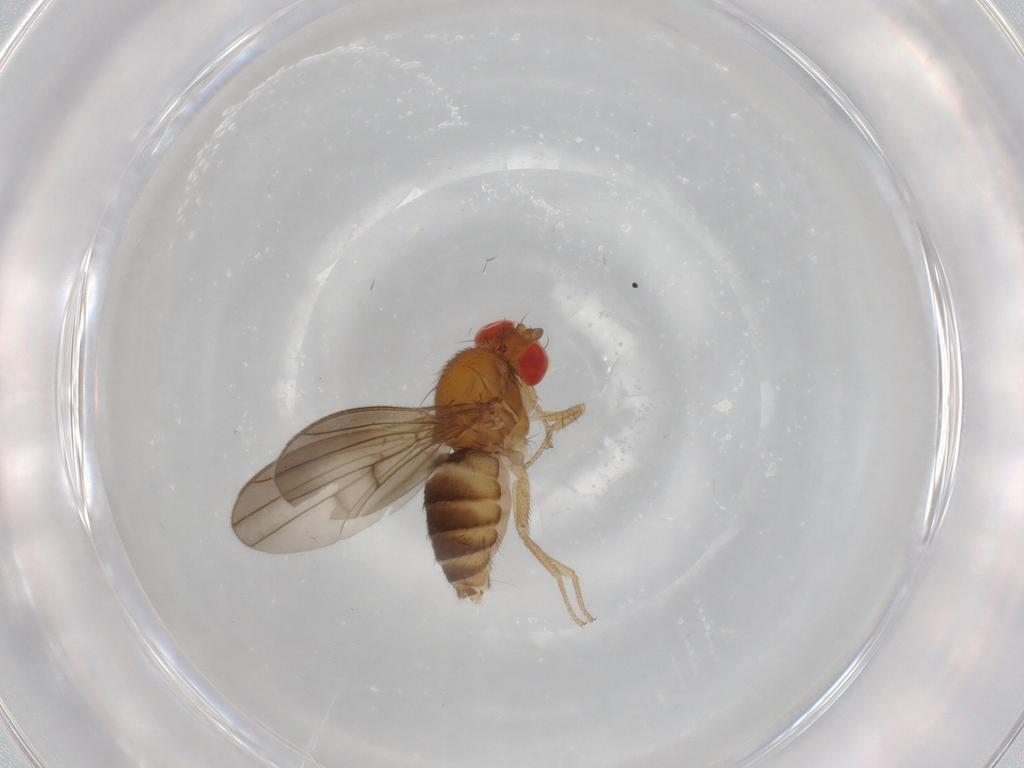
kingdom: Animalia
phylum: Arthropoda
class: Insecta
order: Diptera
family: Drosophilidae
